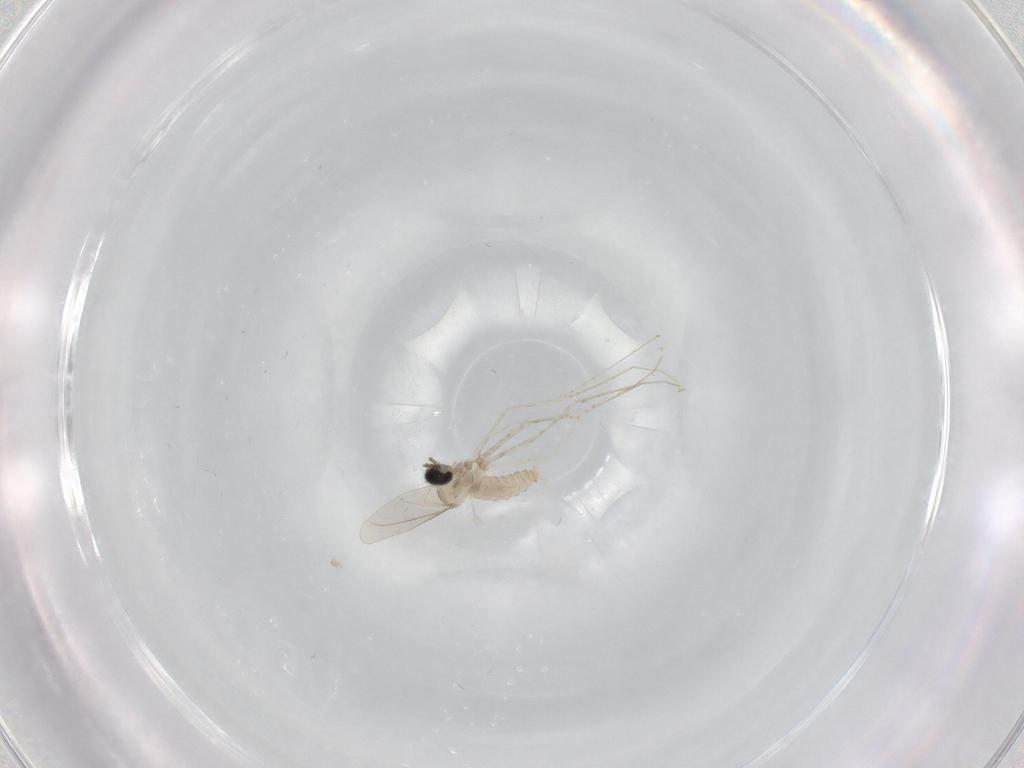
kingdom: Animalia
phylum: Arthropoda
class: Insecta
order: Diptera
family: Cecidomyiidae
